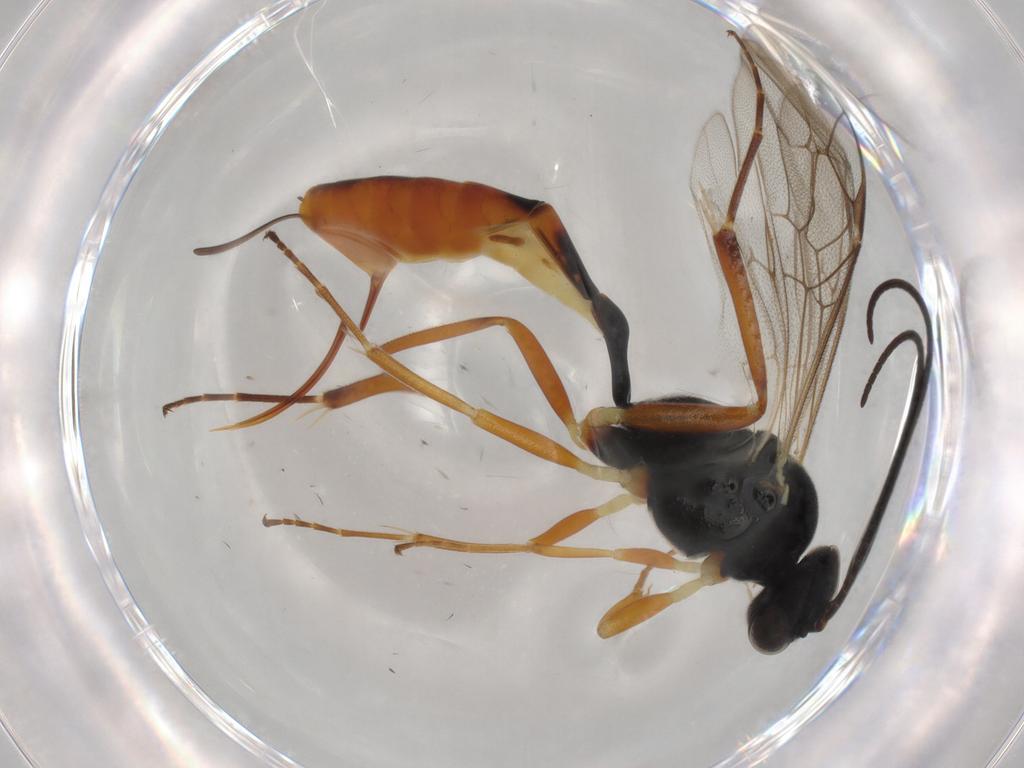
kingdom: Animalia
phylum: Arthropoda
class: Insecta
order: Hymenoptera
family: Ichneumonidae
